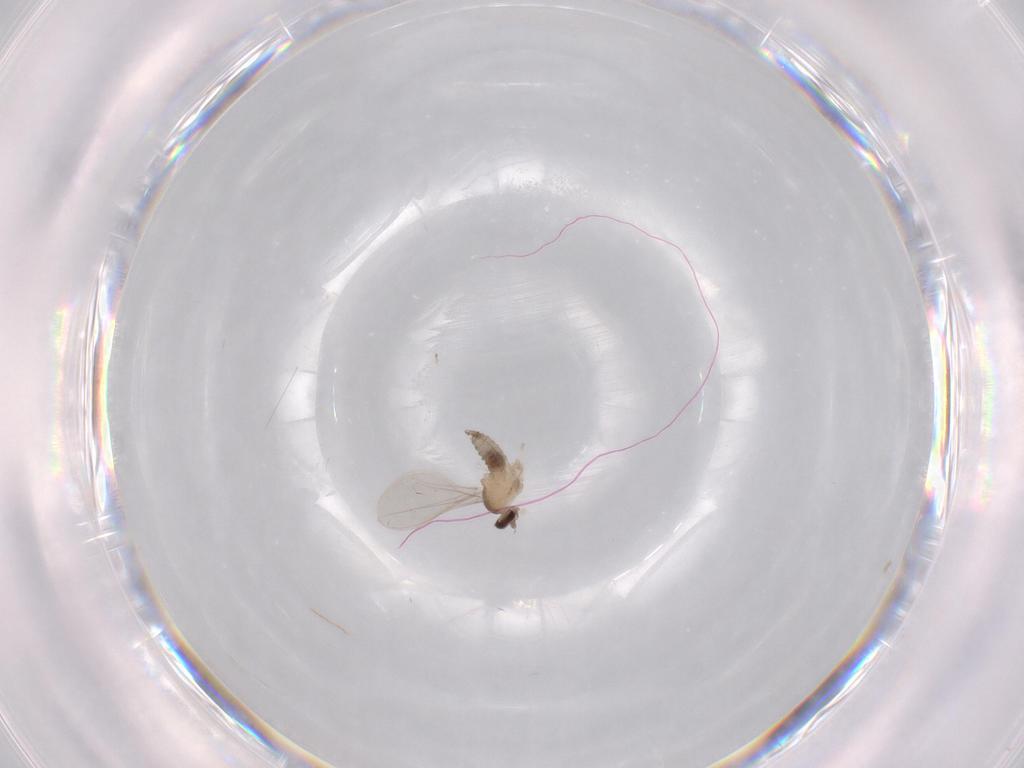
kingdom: Animalia
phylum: Arthropoda
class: Insecta
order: Diptera
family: Cecidomyiidae
